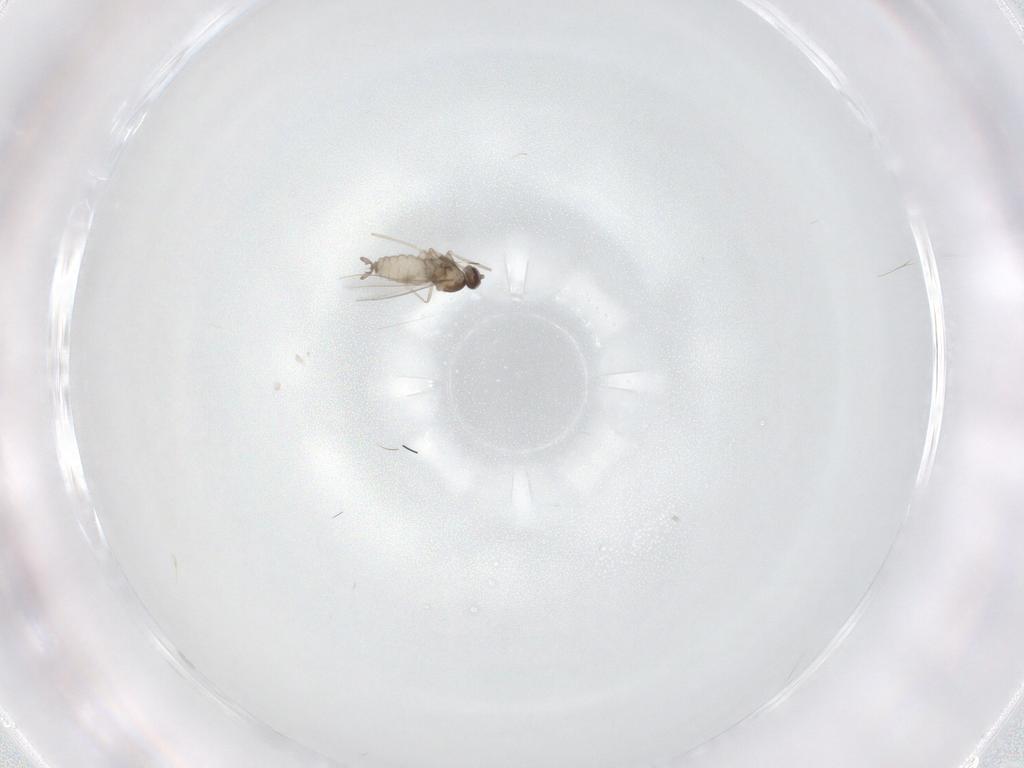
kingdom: Animalia
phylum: Arthropoda
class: Insecta
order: Diptera
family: Cecidomyiidae
